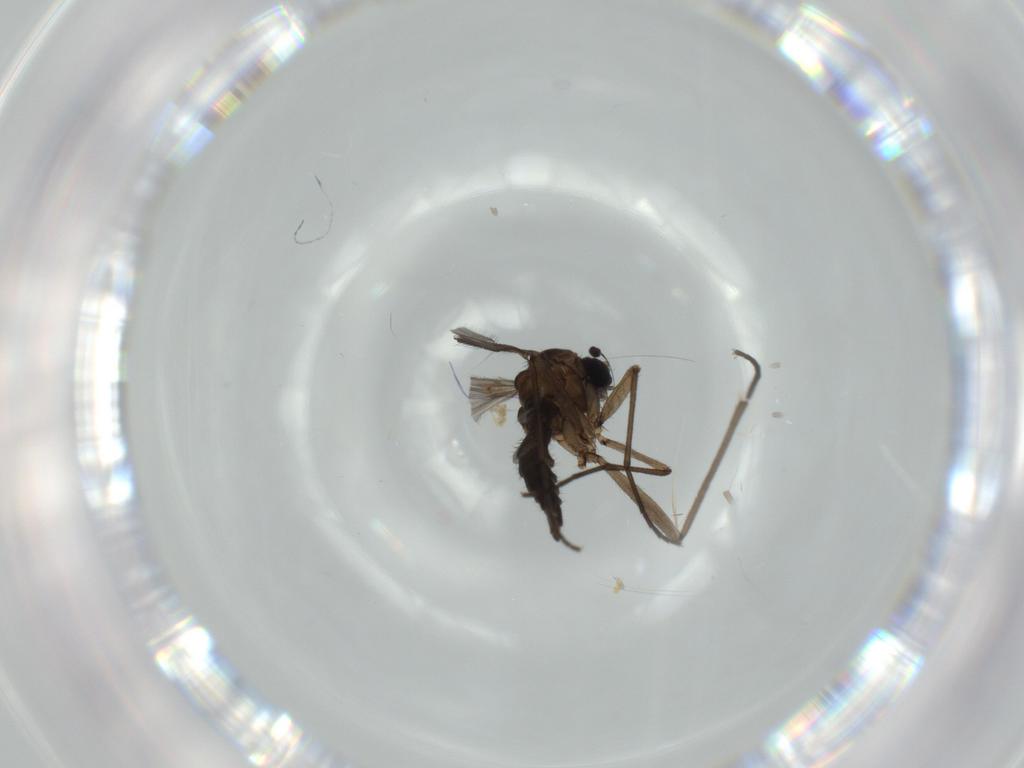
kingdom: Animalia
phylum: Arthropoda
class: Insecta
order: Diptera
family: Sciaridae
